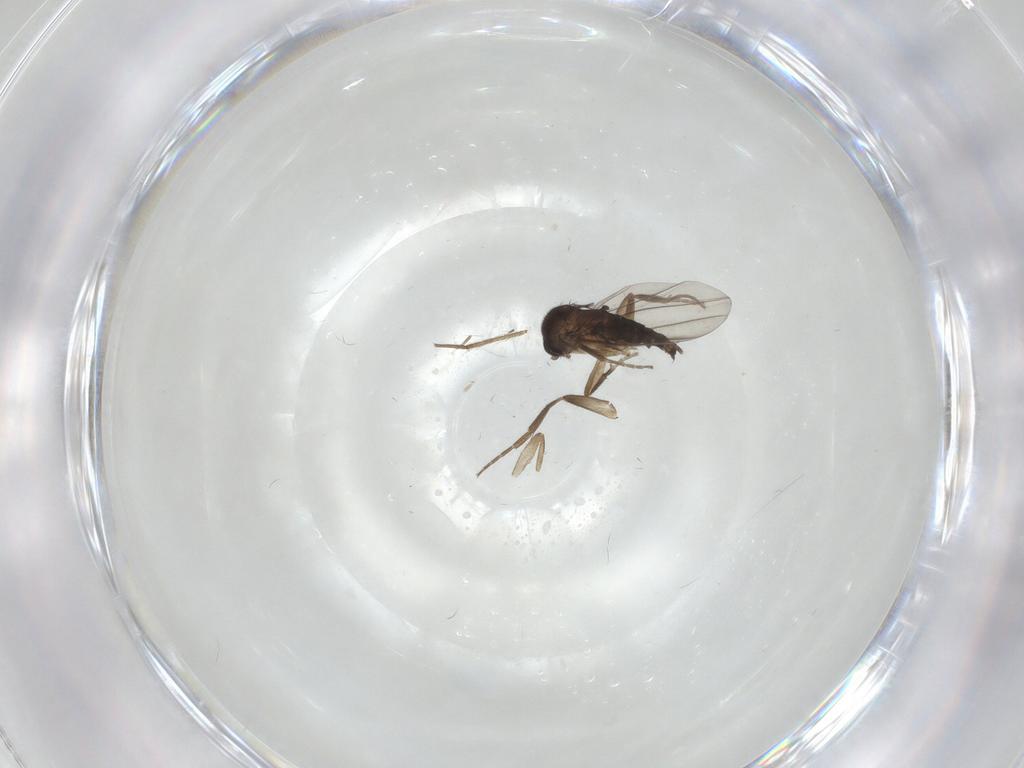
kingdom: Animalia
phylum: Arthropoda
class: Insecta
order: Diptera
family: Phoridae
